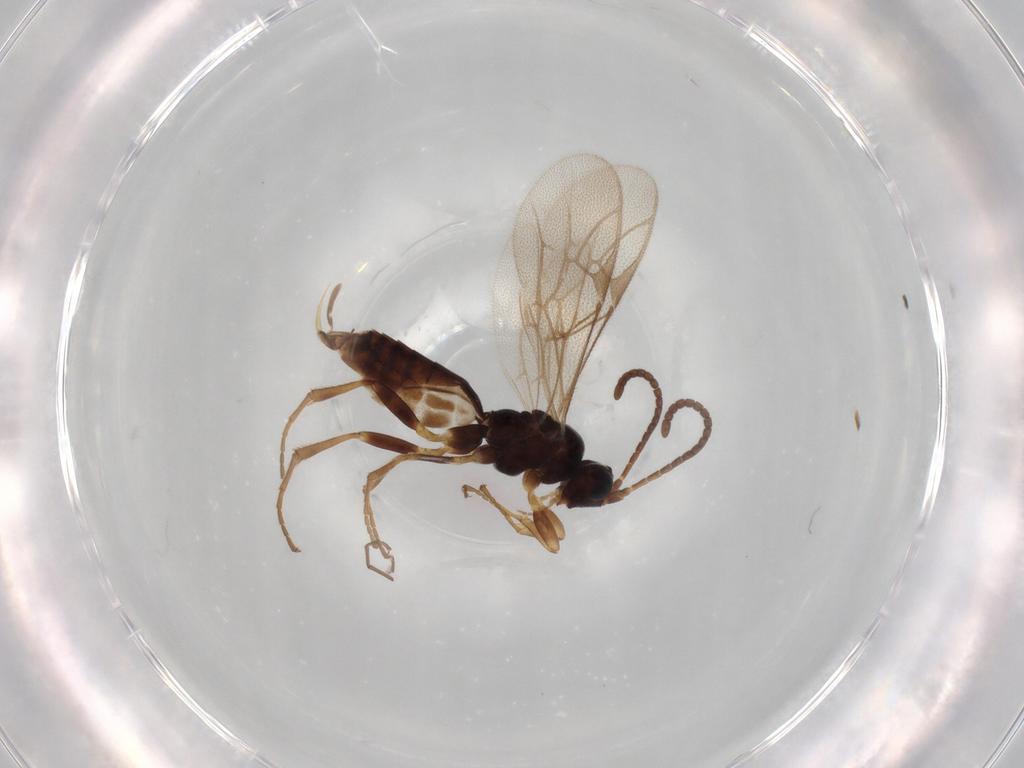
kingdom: Animalia
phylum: Arthropoda
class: Insecta
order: Hymenoptera
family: Ichneumonidae
